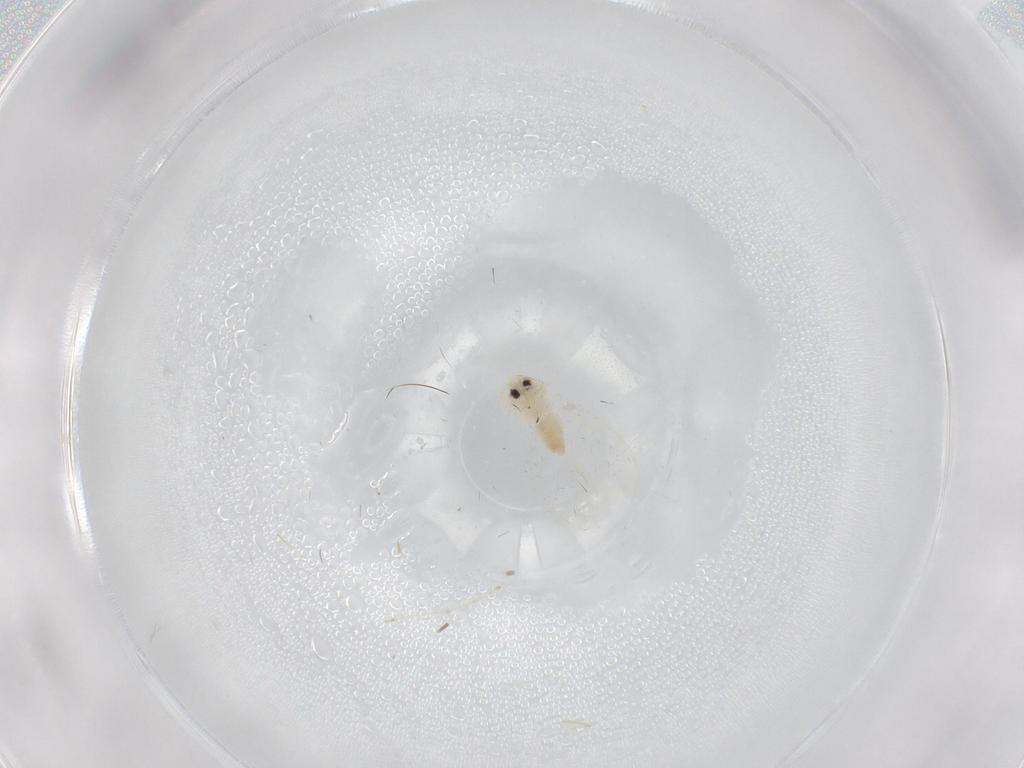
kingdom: Animalia
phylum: Arthropoda
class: Insecta
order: Hemiptera
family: Aleyrodidae
